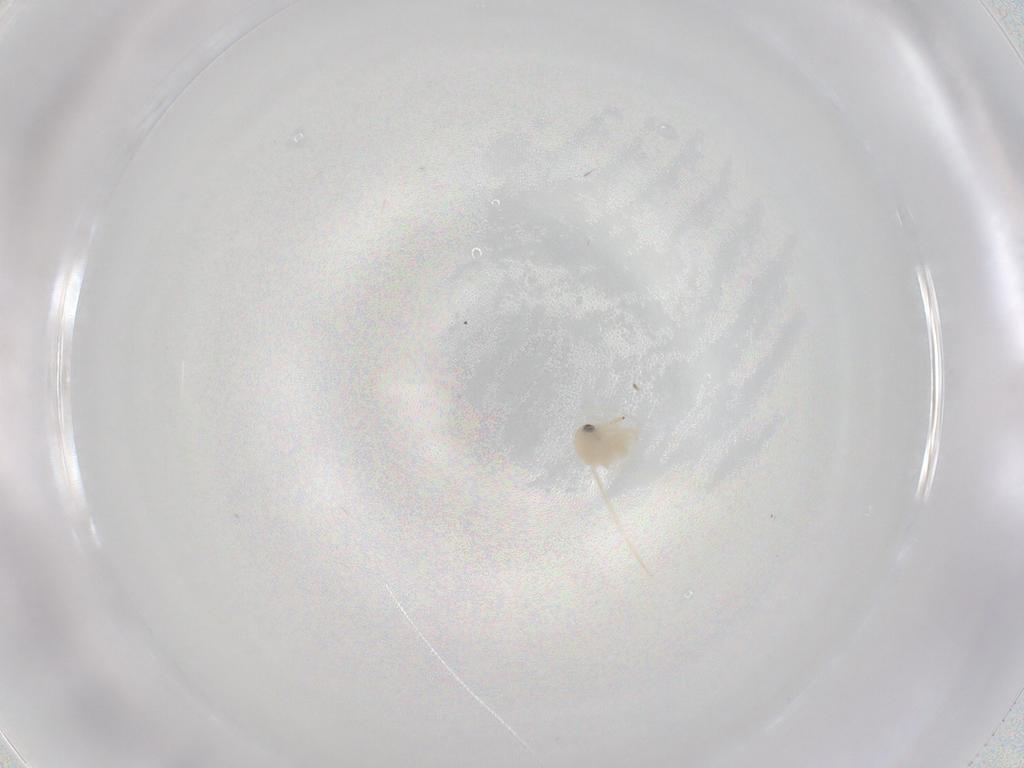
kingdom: Animalia
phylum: Arthropoda
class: Insecta
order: Hemiptera
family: Aleyrodidae
